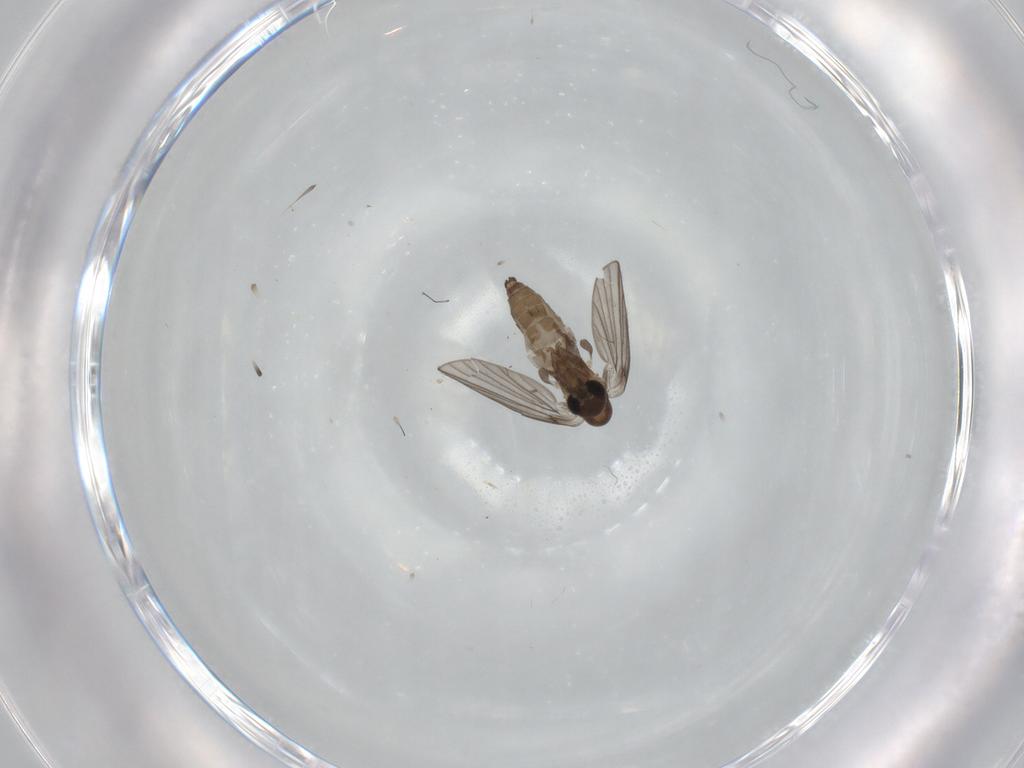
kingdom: Animalia
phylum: Arthropoda
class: Insecta
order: Diptera
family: Psychodidae
